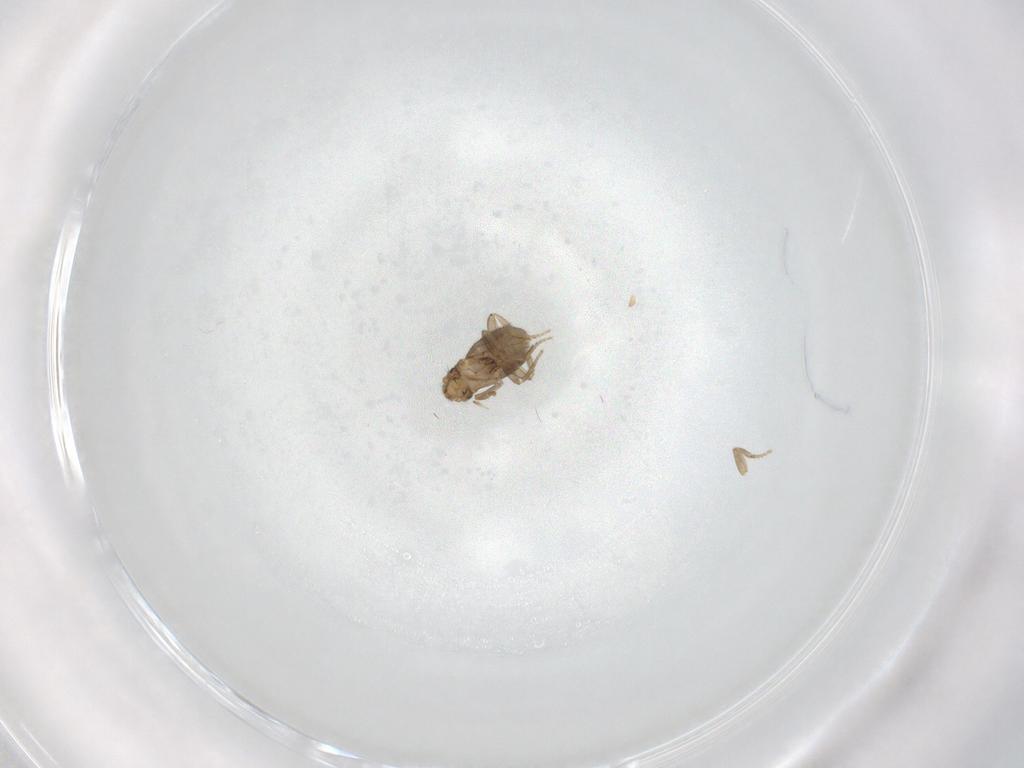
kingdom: Animalia
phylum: Arthropoda
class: Insecta
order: Diptera
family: Phoridae
